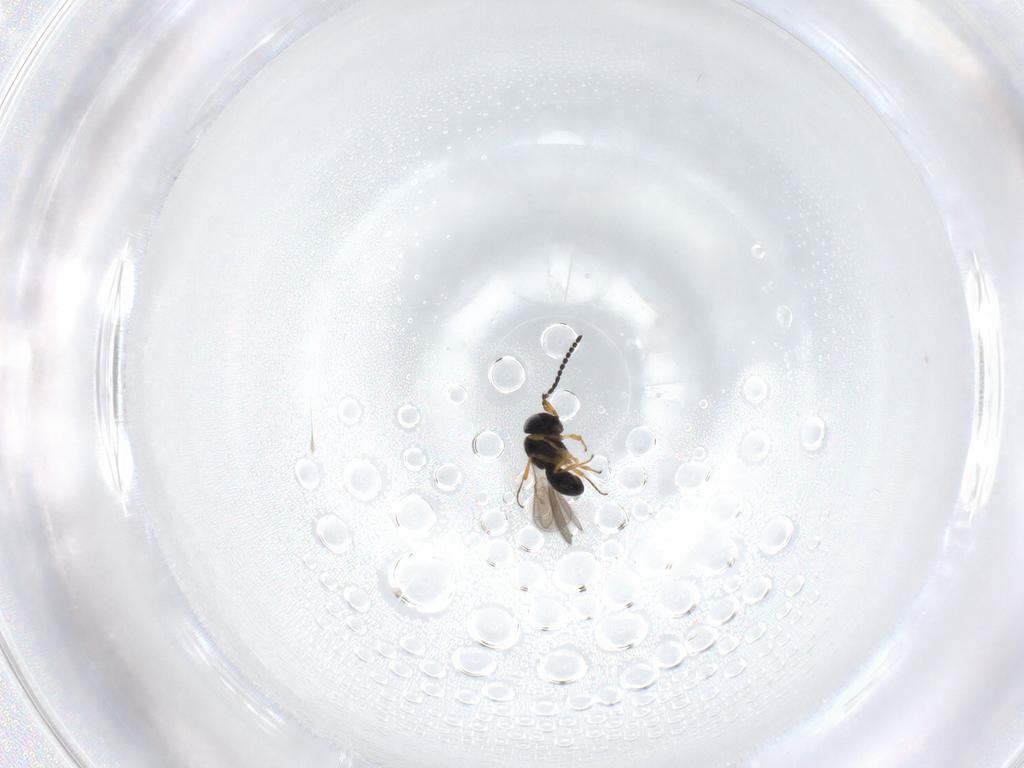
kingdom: Animalia
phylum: Arthropoda
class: Insecta
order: Hymenoptera
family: Scelionidae
